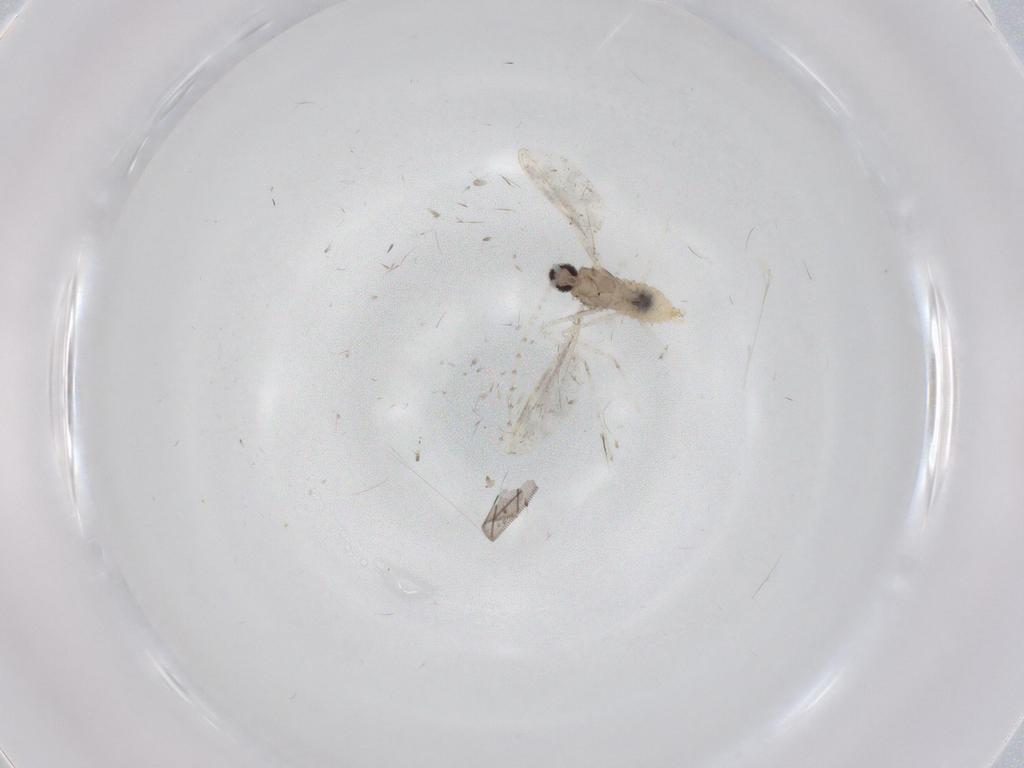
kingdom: Animalia
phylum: Arthropoda
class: Insecta
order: Diptera
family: Cecidomyiidae
